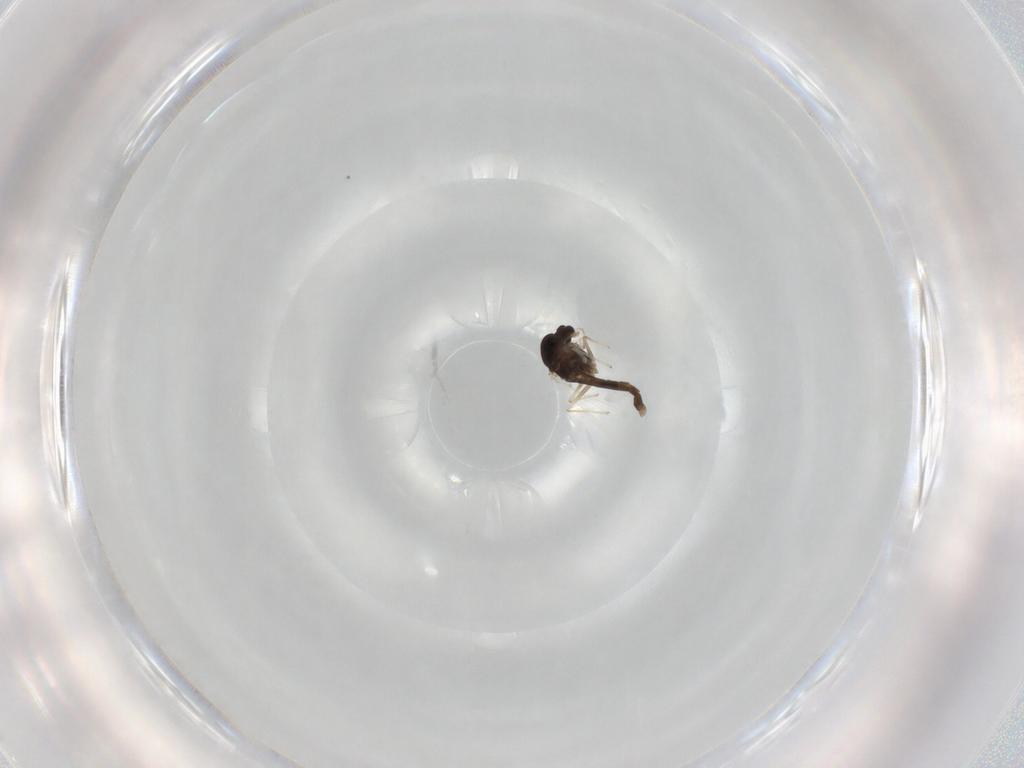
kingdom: Animalia
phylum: Arthropoda
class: Insecta
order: Diptera
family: Chironomidae
